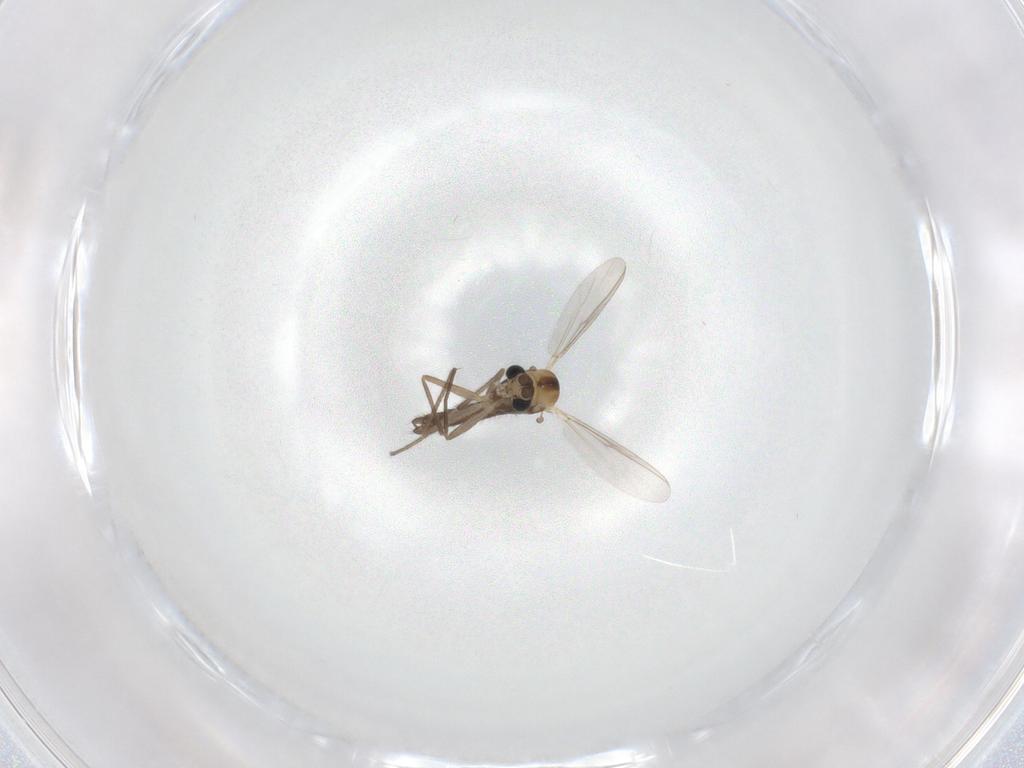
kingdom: Animalia
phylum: Arthropoda
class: Insecta
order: Diptera
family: Chironomidae
